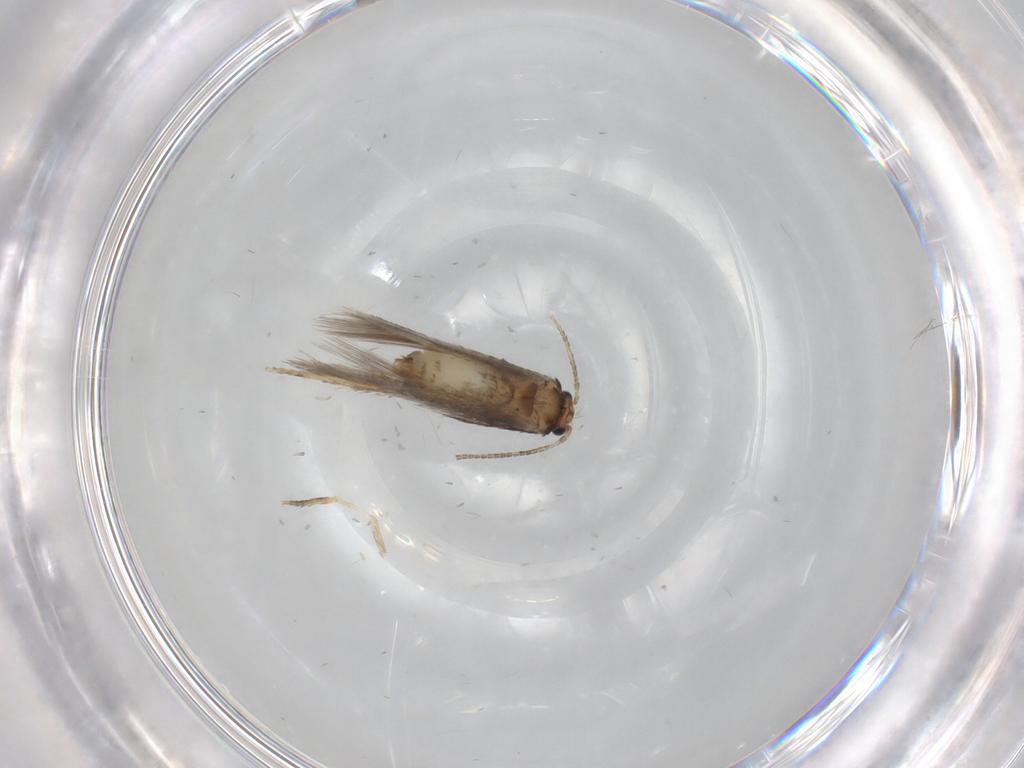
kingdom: Animalia
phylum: Arthropoda
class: Insecta
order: Lepidoptera
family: Nepticulidae
